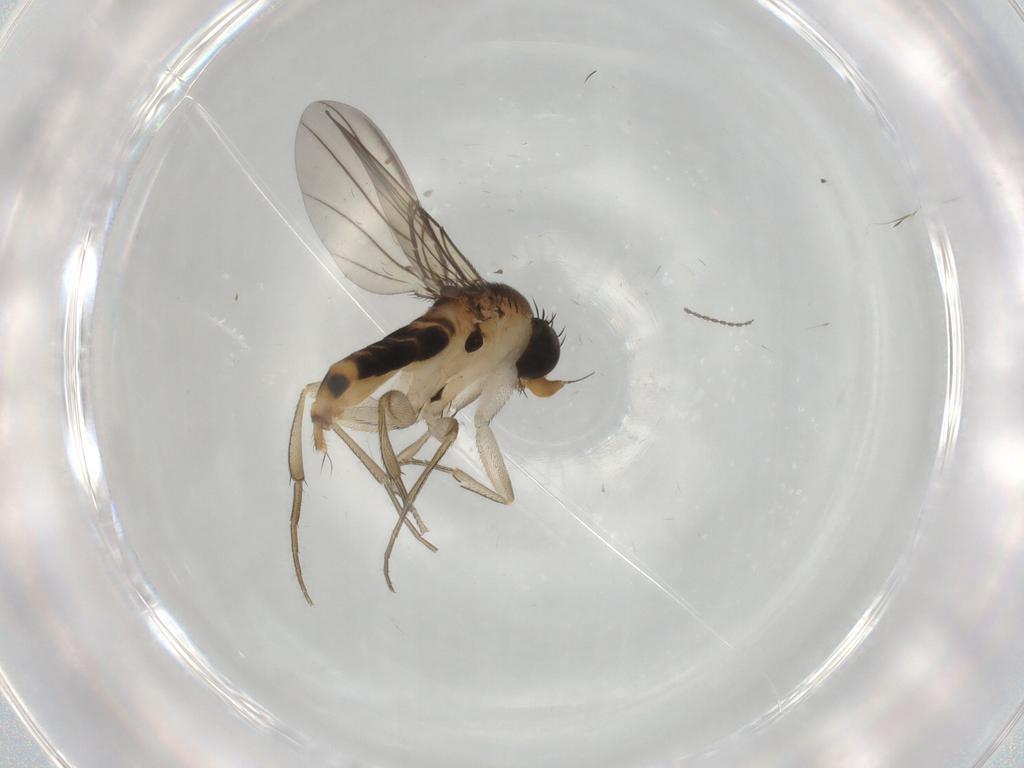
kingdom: Animalia
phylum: Arthropoda
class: Insecta
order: Diptera
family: Phoridae
